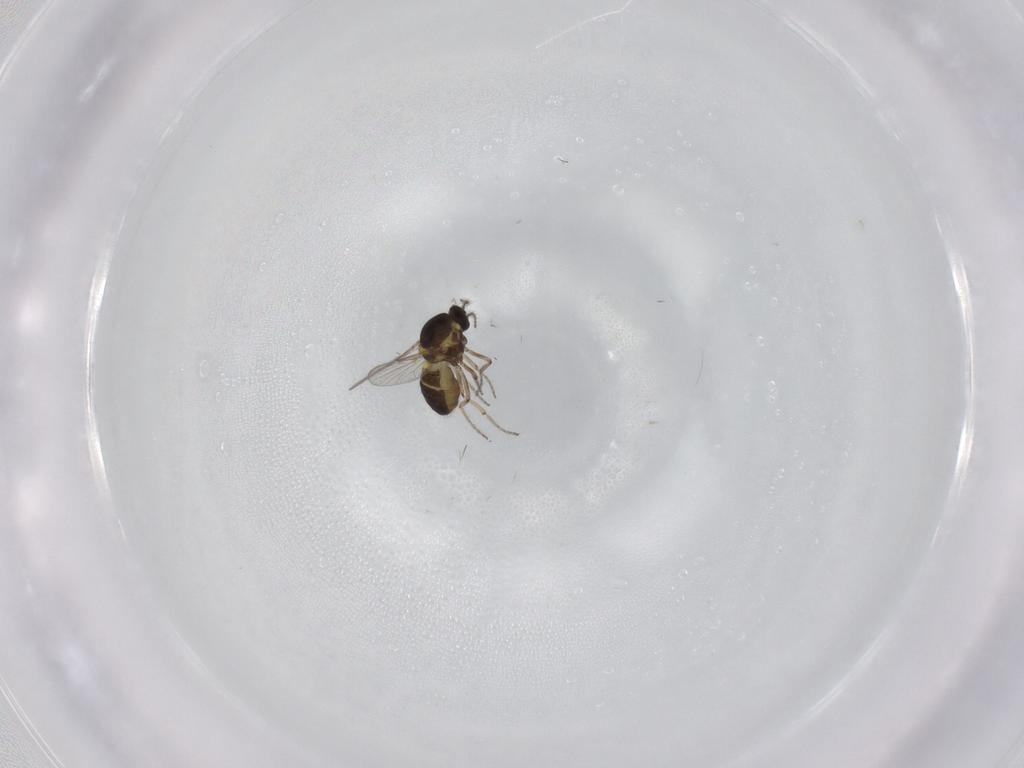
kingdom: Animalia
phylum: Arthropoda
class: Insecta
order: Diptera
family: Ceratopogonidae
